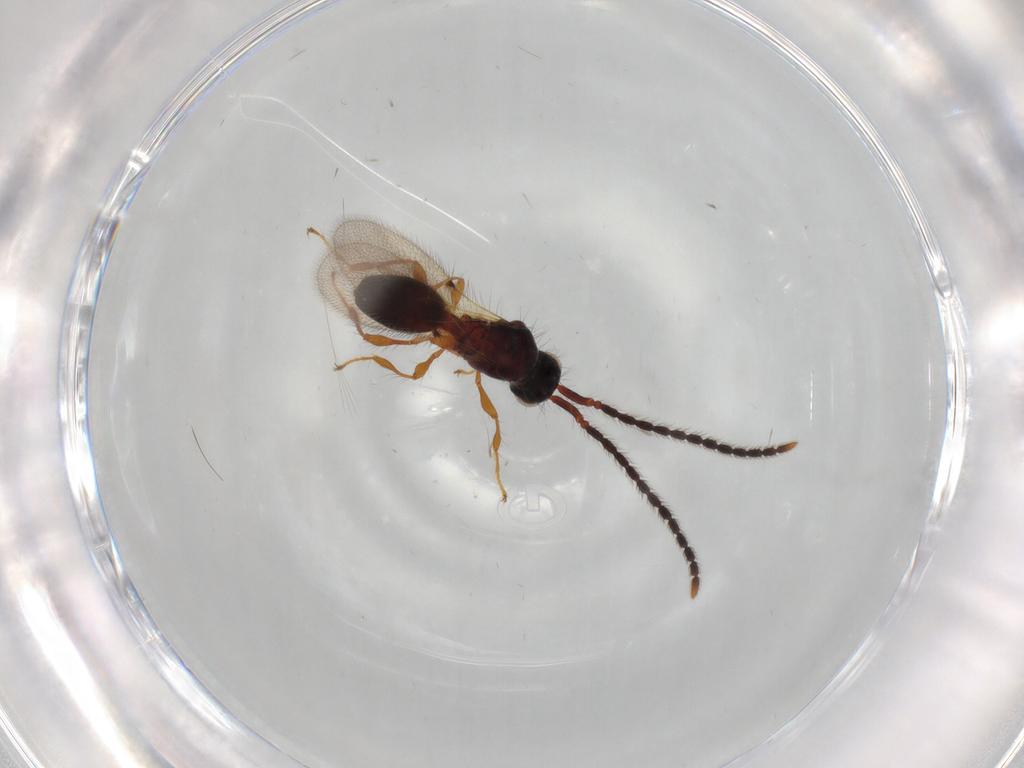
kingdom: Animalia
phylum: Arthropoda
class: Insecta
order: Hymenoptera
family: Diapriidae
